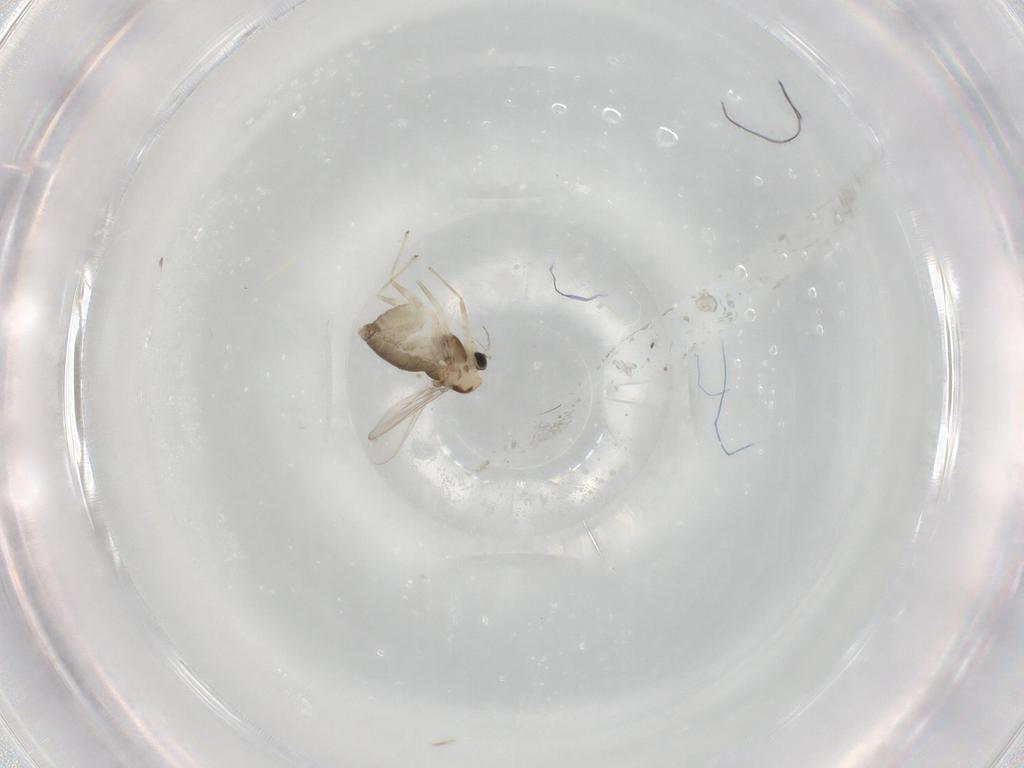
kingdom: Animalia
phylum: Arthropoda
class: Insecta
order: Diptera
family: Chironomidae
